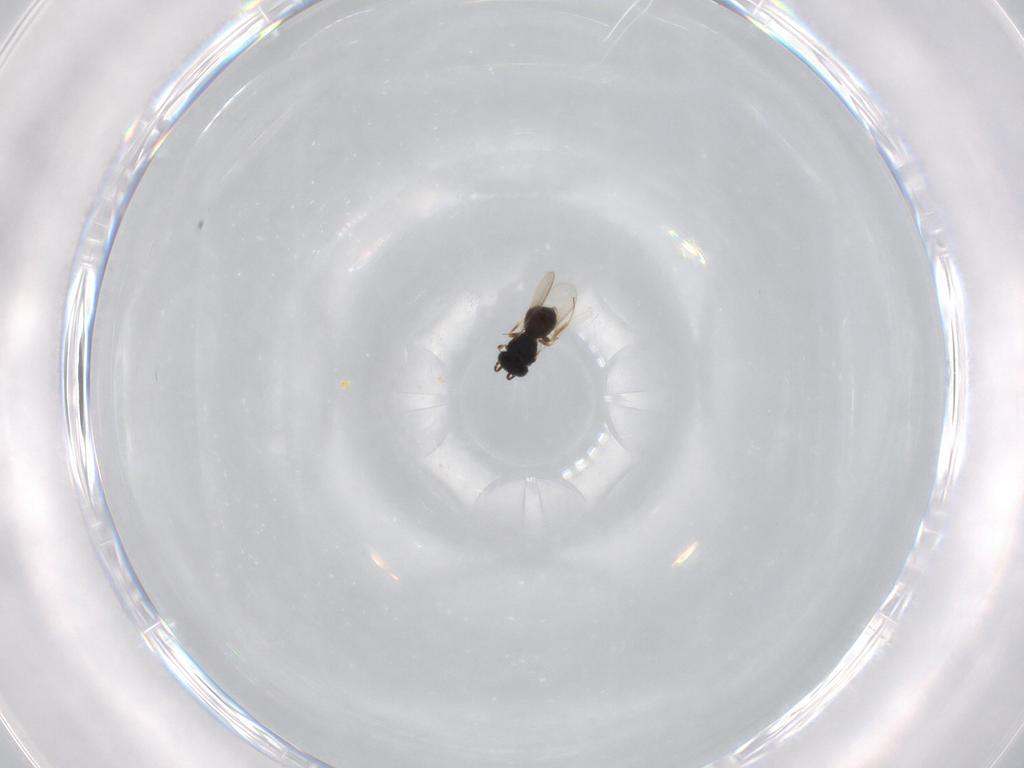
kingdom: Animalia
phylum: Arthropoda
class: Insecta
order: Hymenoptera
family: Scelionidae
